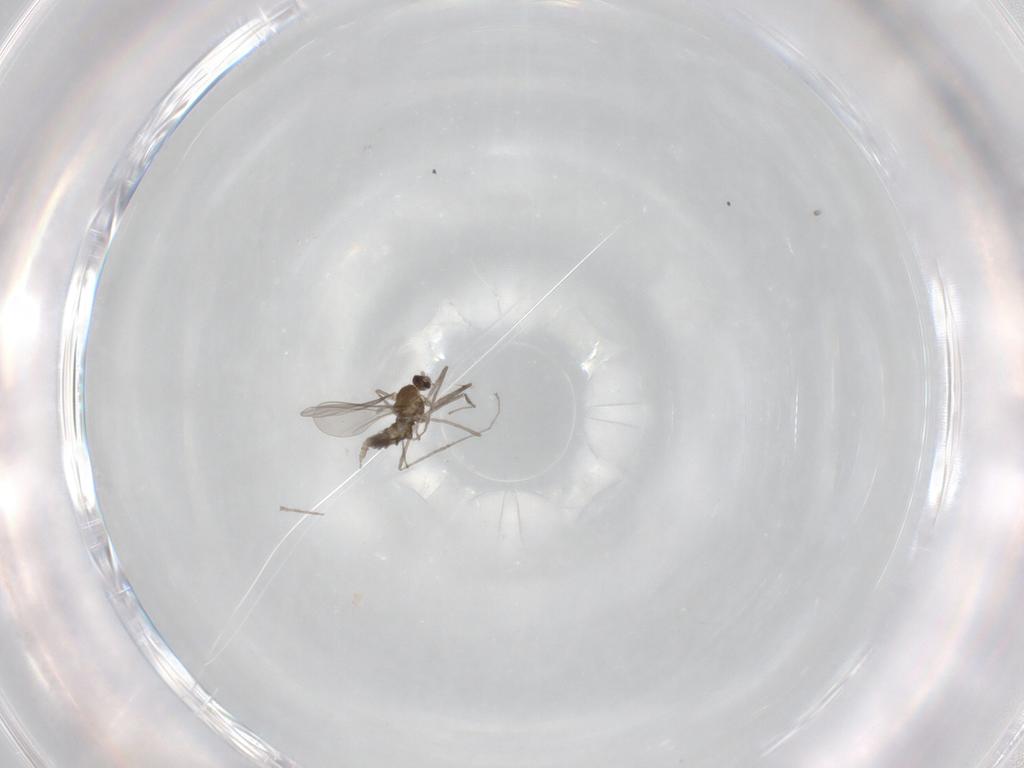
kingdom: Animalia
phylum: Arthropoda
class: Insecta
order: Diptera
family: Cecidomyiidae
